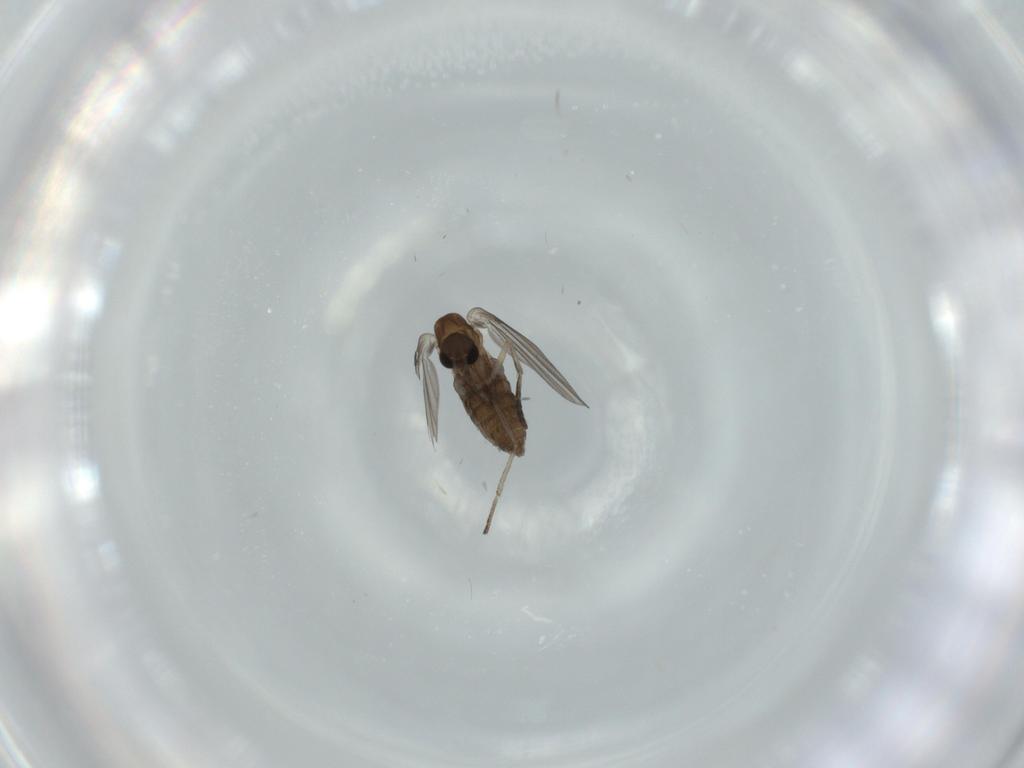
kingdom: Animalia
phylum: Arthropoda
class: Insecta
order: Diptera
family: Psychodidae
